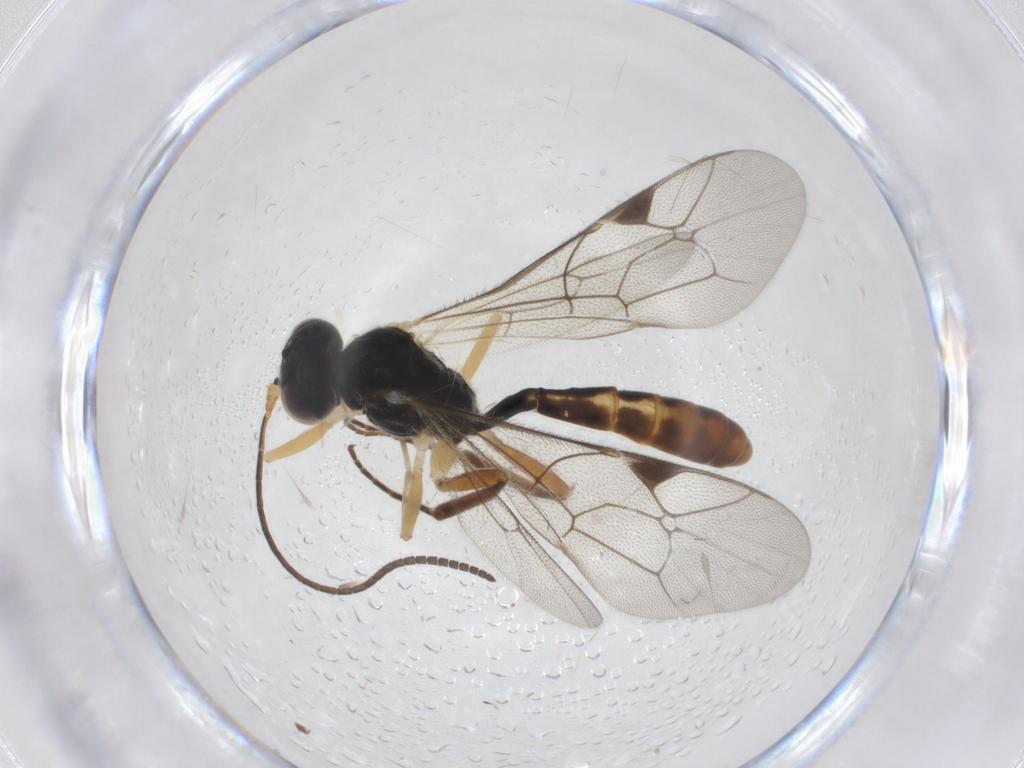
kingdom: Animalia
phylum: Arthropoda
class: Insecta
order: Hymenoptera
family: Ichneumonidae
